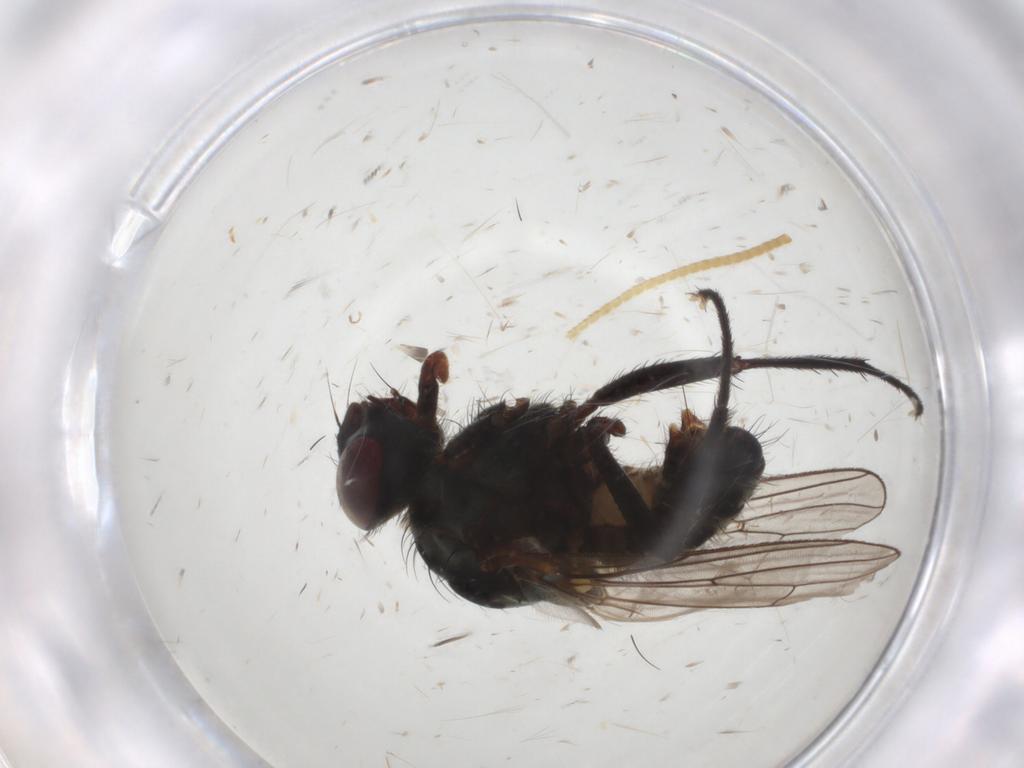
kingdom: Animalia
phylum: Arthropoda
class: Insecta
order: Diptera
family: Anthomyiidae
